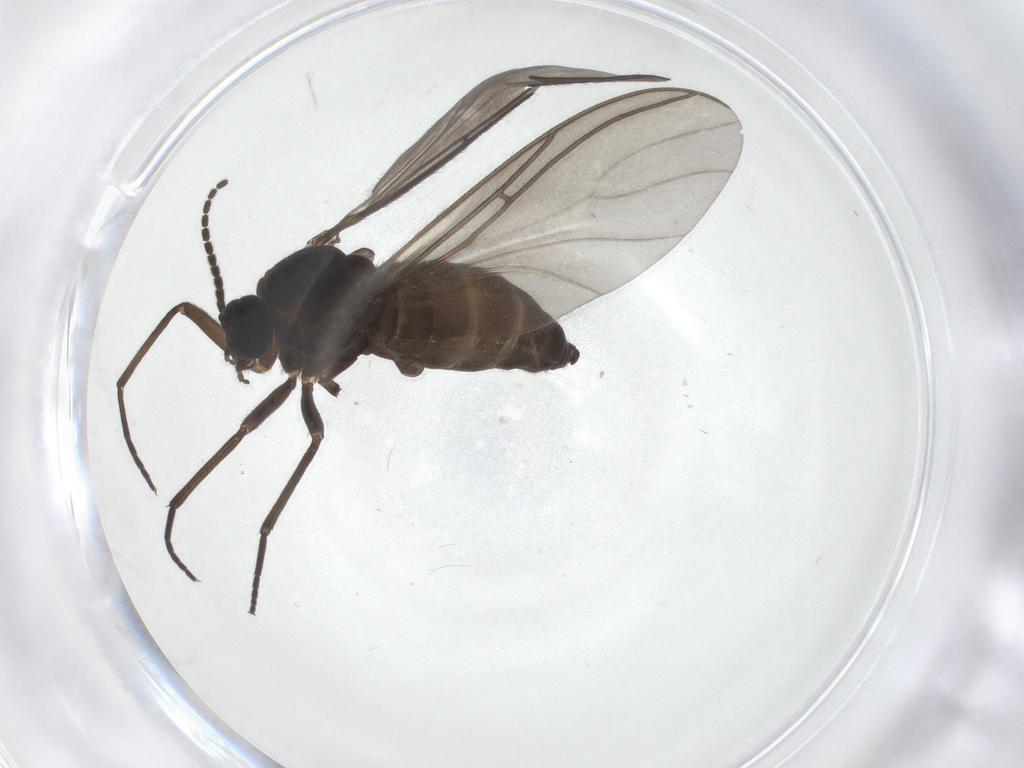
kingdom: Animalia
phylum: Arthropoda
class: Insecta
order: Diptera
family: Sciaridae
